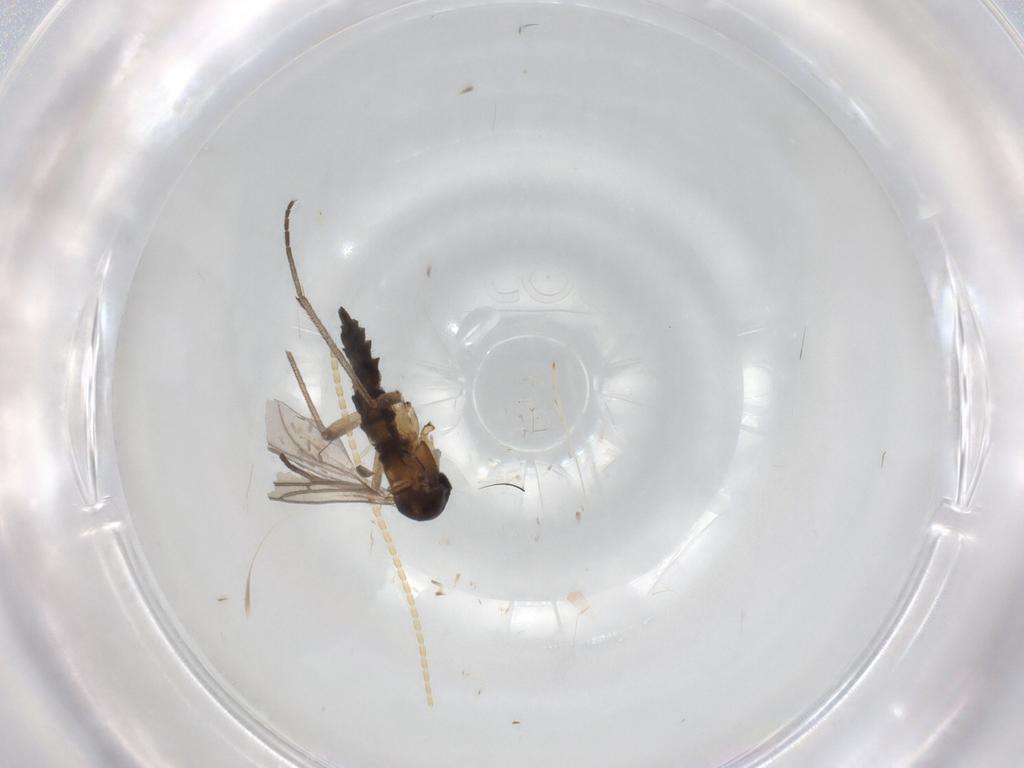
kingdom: Animalia
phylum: Arthropoda
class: Insecta
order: Diptera
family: Sciaridae
